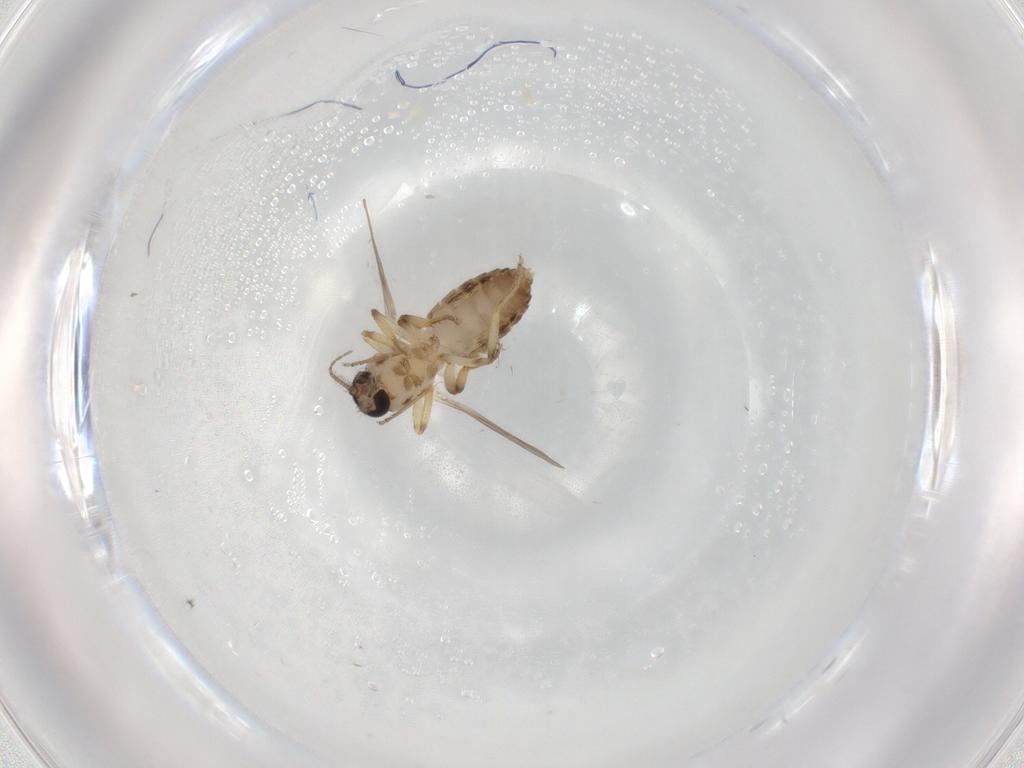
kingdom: Animalia
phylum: Arthropoda
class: Insecta
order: Diptera
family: Ceratopogonidae
